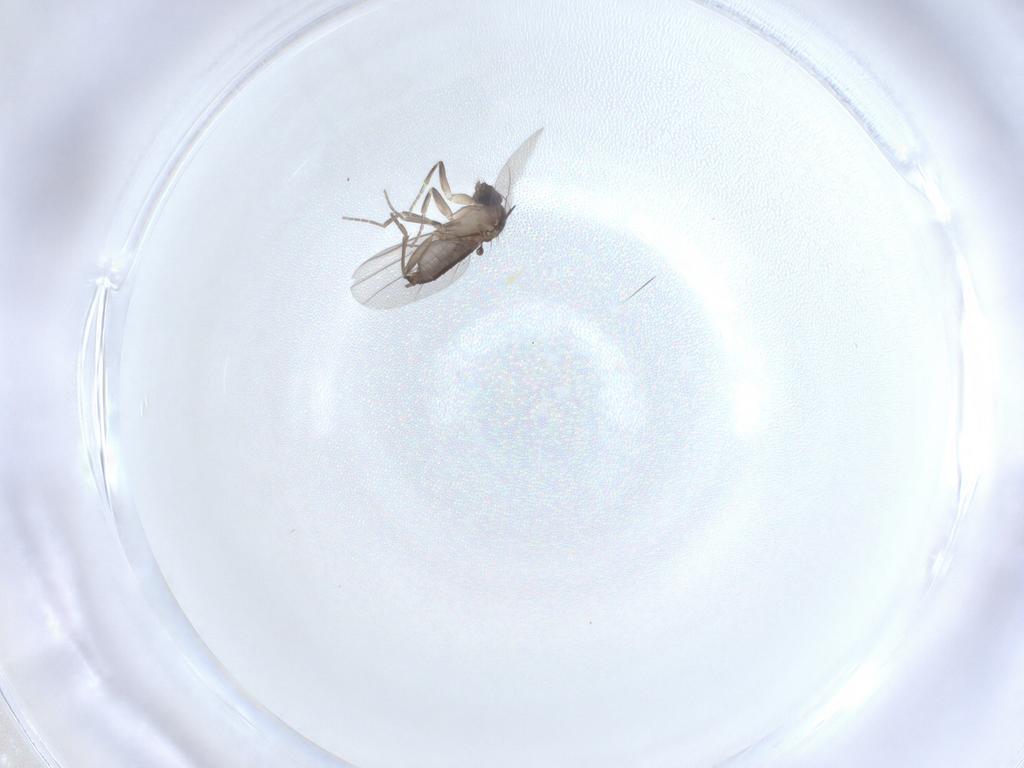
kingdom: Animalia
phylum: Arthropoda
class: Insecta
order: Diptera
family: Phoridae
